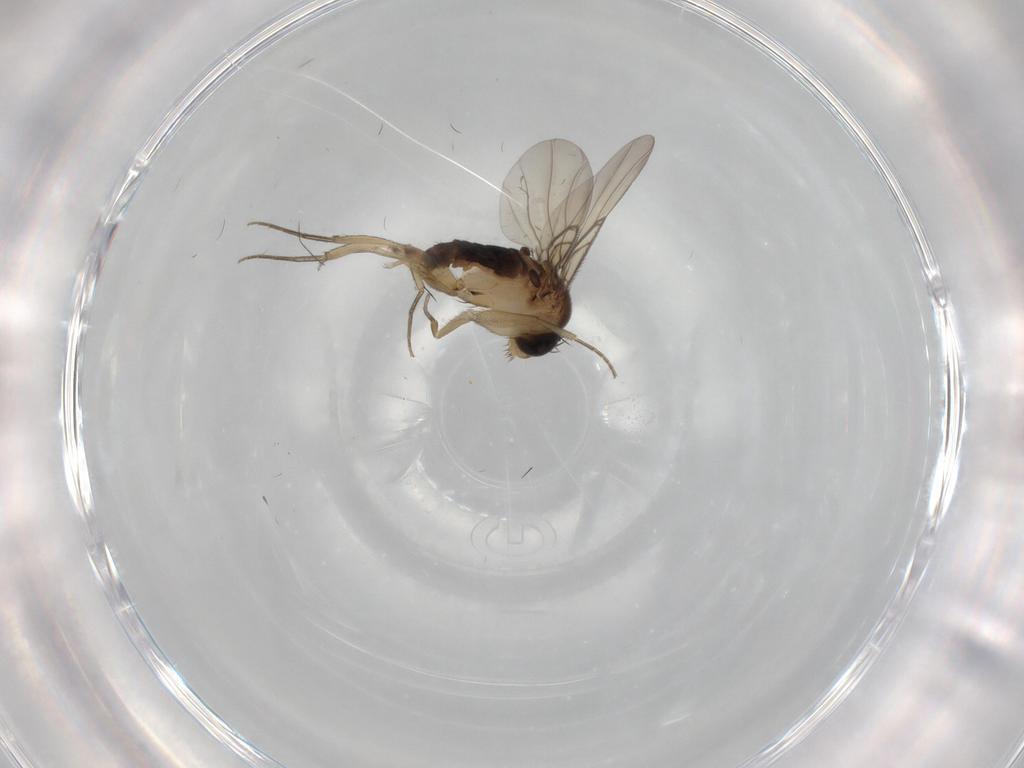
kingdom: Animalia
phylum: Arthropoda
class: Insecta
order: Diptera
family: Phoridae
